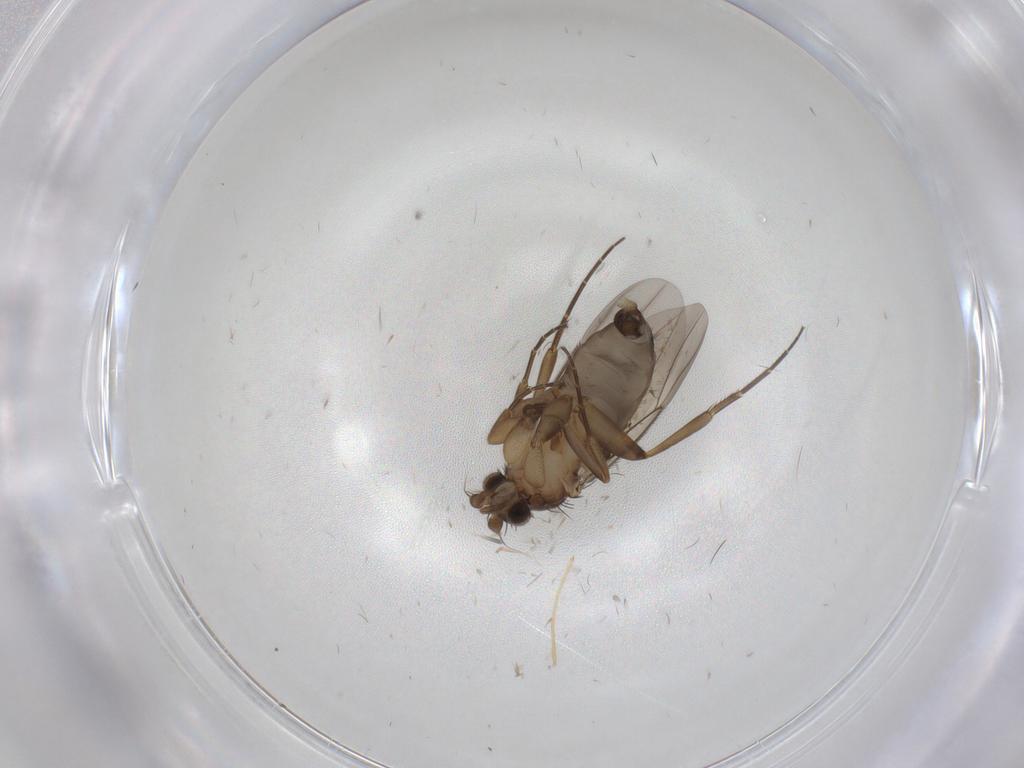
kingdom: Animalia
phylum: Arthropoda
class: Insecta
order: Diptera
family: Phoridae
